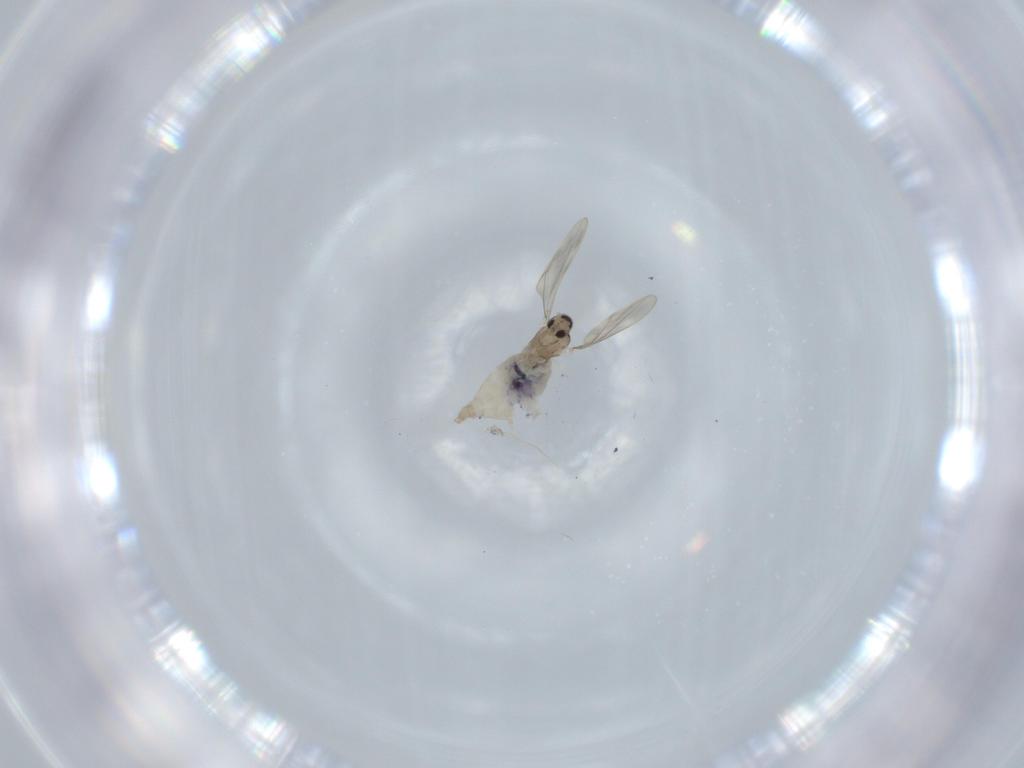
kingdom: Animalia
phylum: Arthropoda
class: Insecta
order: Diptera
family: Cecidomyiidae
